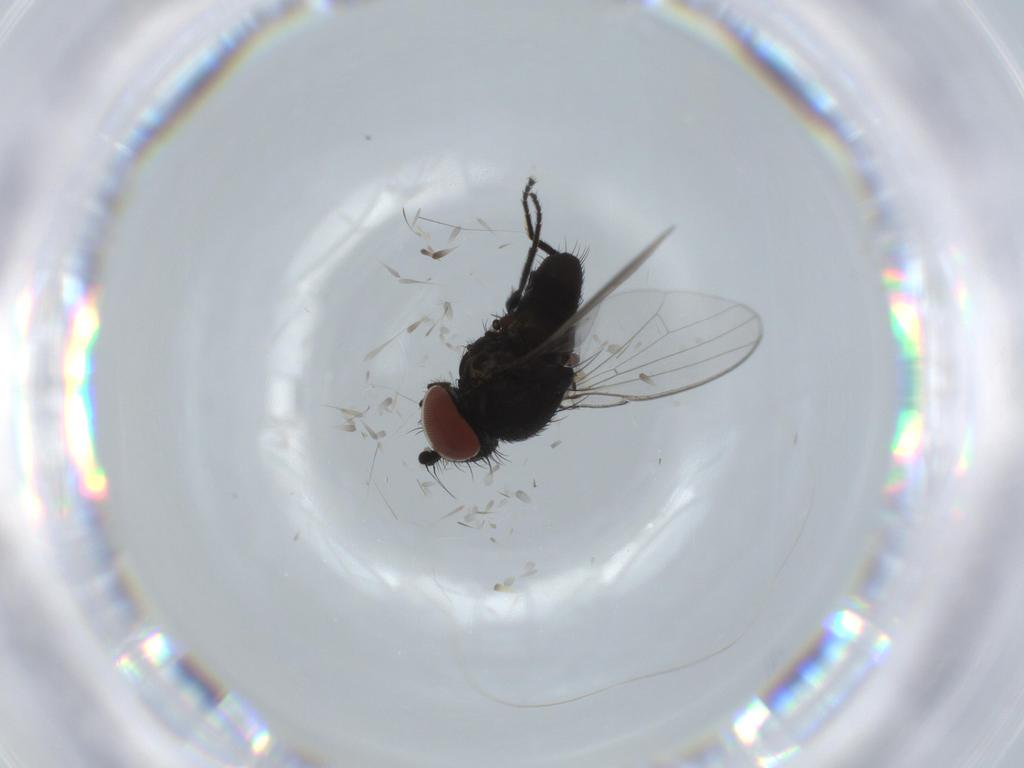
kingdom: Animalia
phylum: Arthropoda
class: Insecta
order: Diptera
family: Milichiidae
